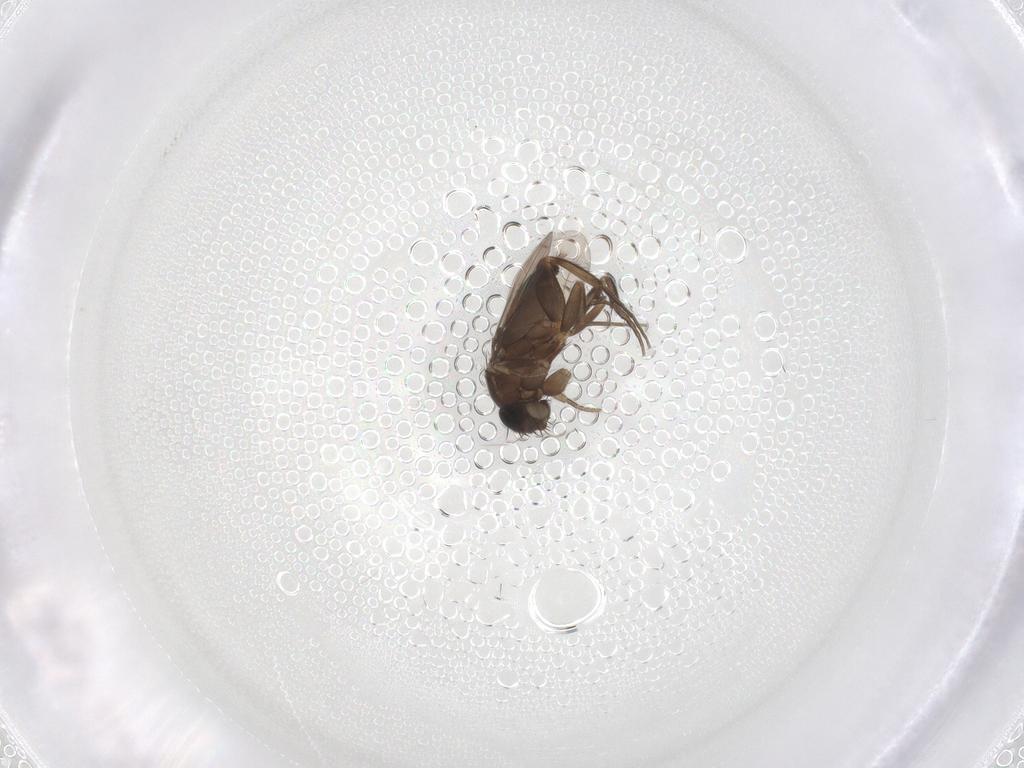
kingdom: Animalia
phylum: Arthropoda
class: Insecta
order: Diptera
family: Phoridae
